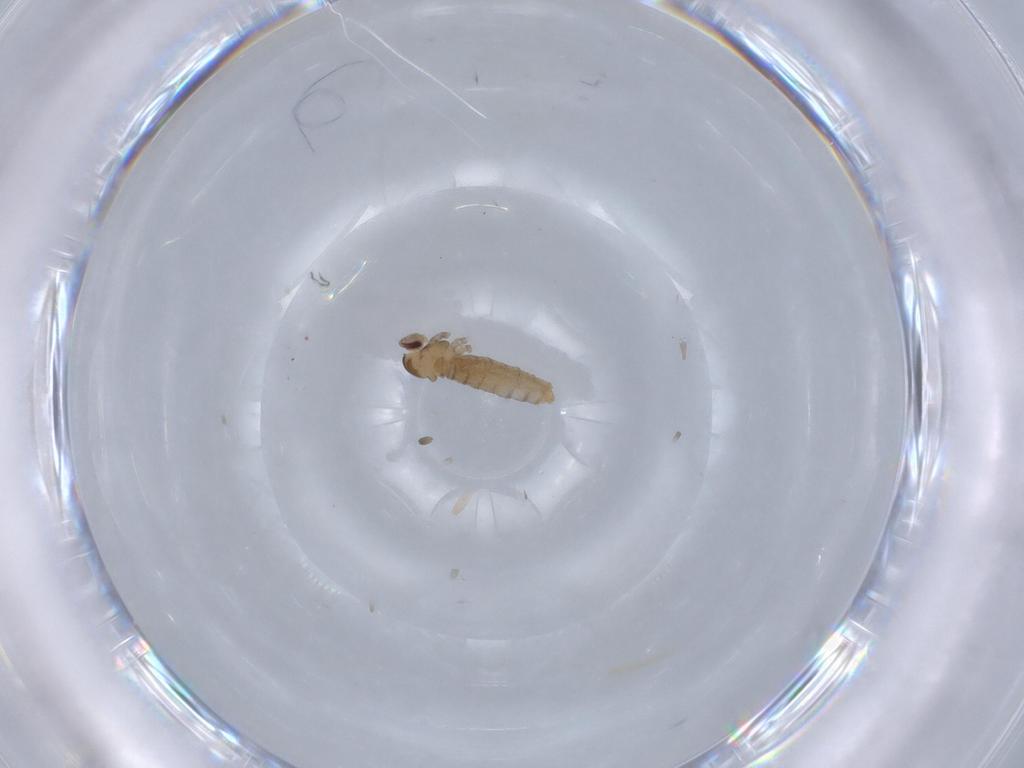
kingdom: Animalia
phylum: Arthropoda
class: Insecta
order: Diptera
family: Cecidomyiidae
